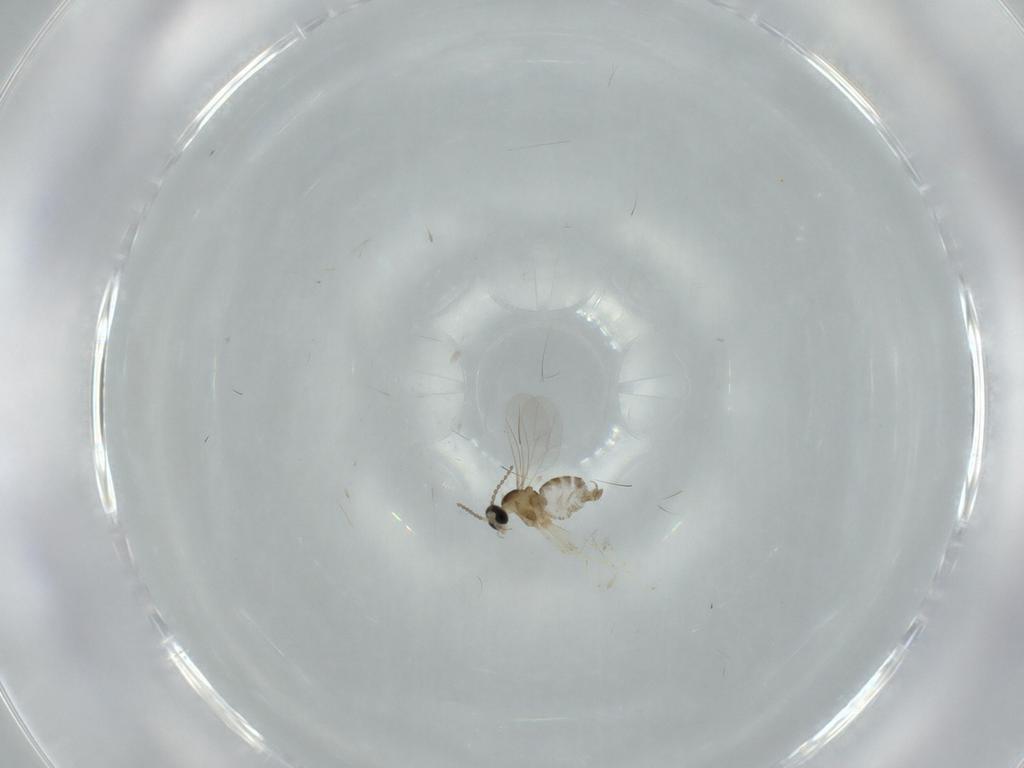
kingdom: Animalia
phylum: Arthropoda
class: Insecta
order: Diptera
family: Cecidomyiidae
